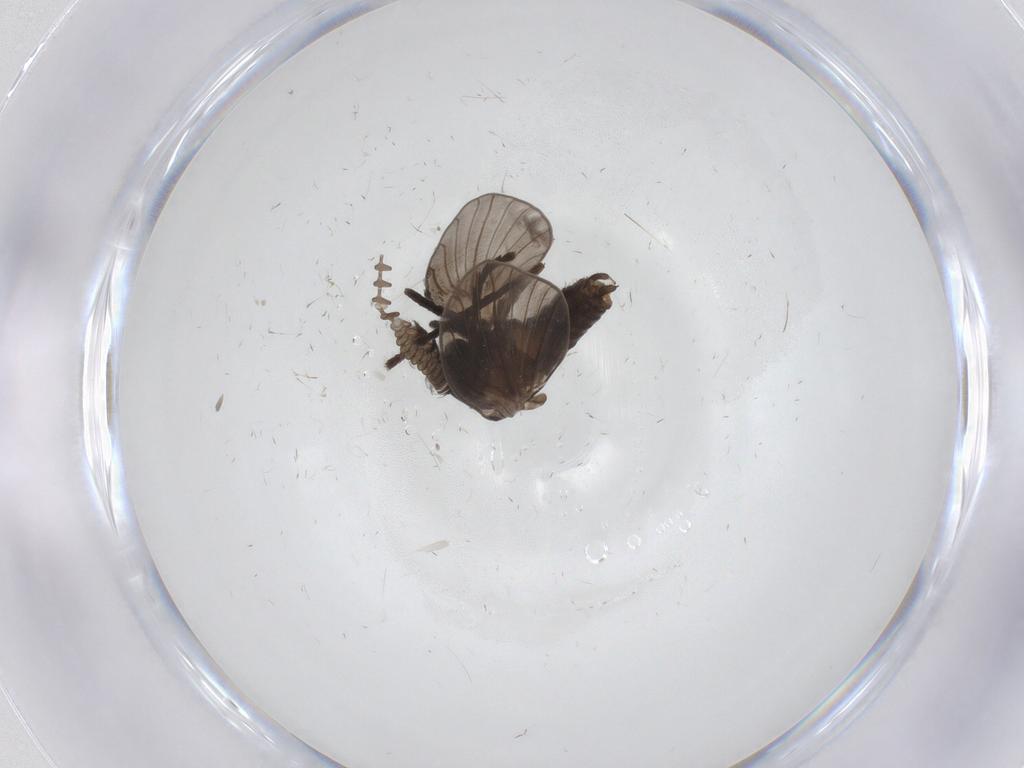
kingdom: Animalia
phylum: Arthropoda
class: Insecta
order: Diptera
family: Psychodidae
